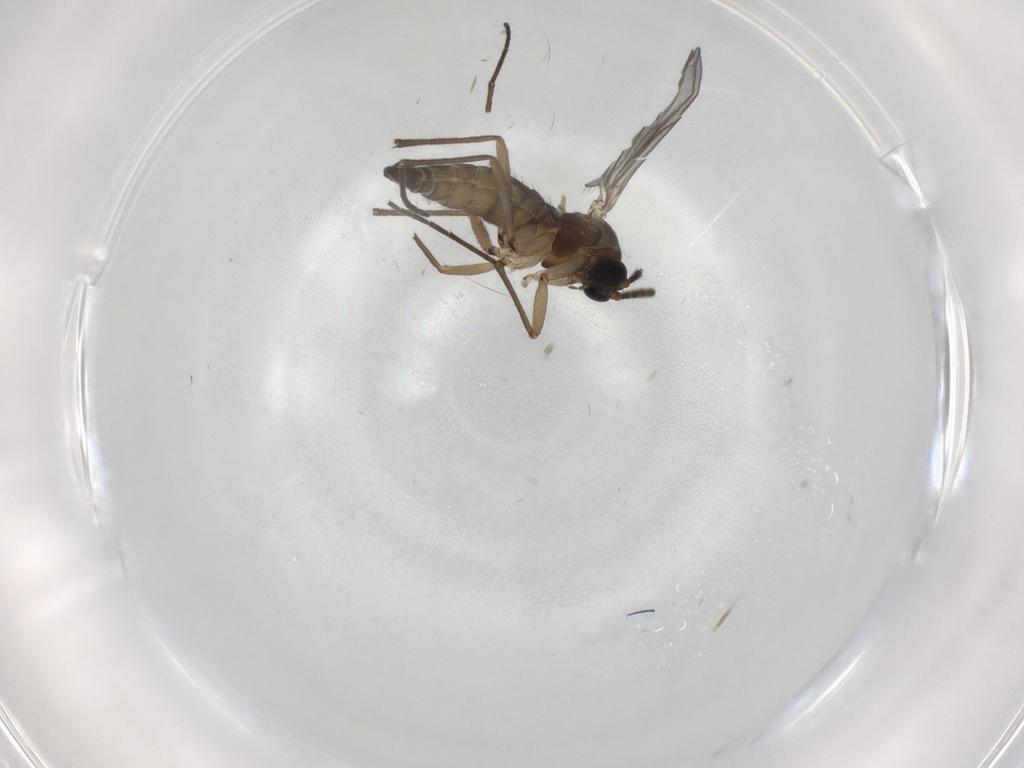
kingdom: Animalia
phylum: Arthropoda
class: Insecta
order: Diptera
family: Sciaridae
